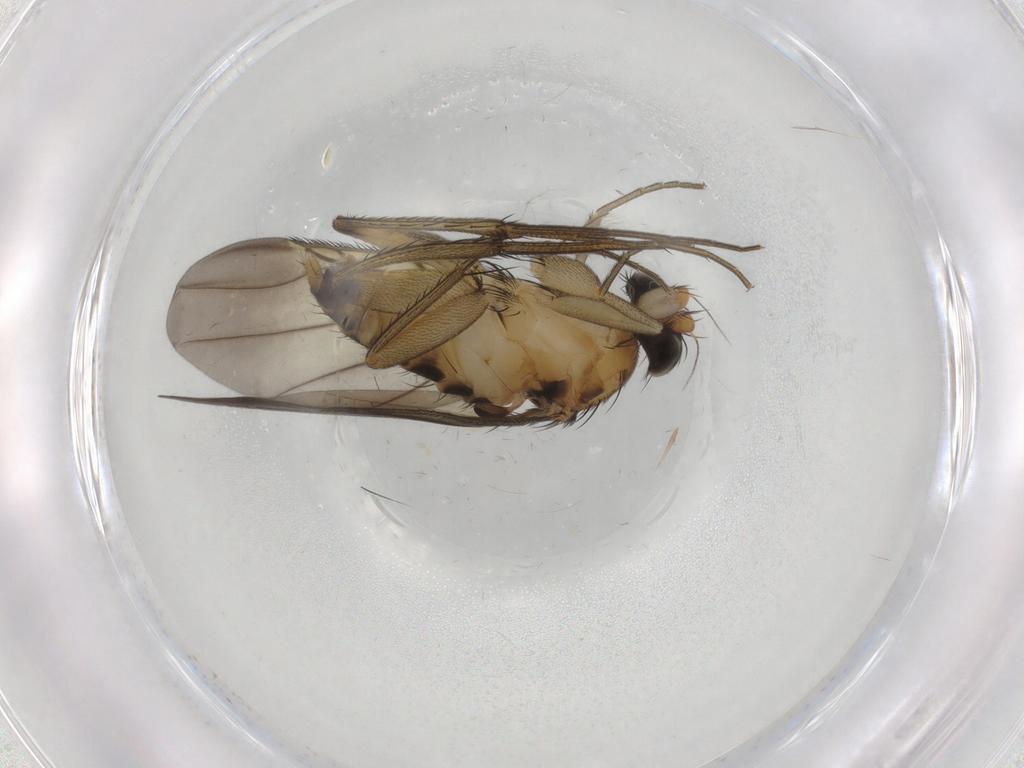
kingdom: Animalia
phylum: Arthropoda
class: Insecta
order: Diptera
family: Phoridae
